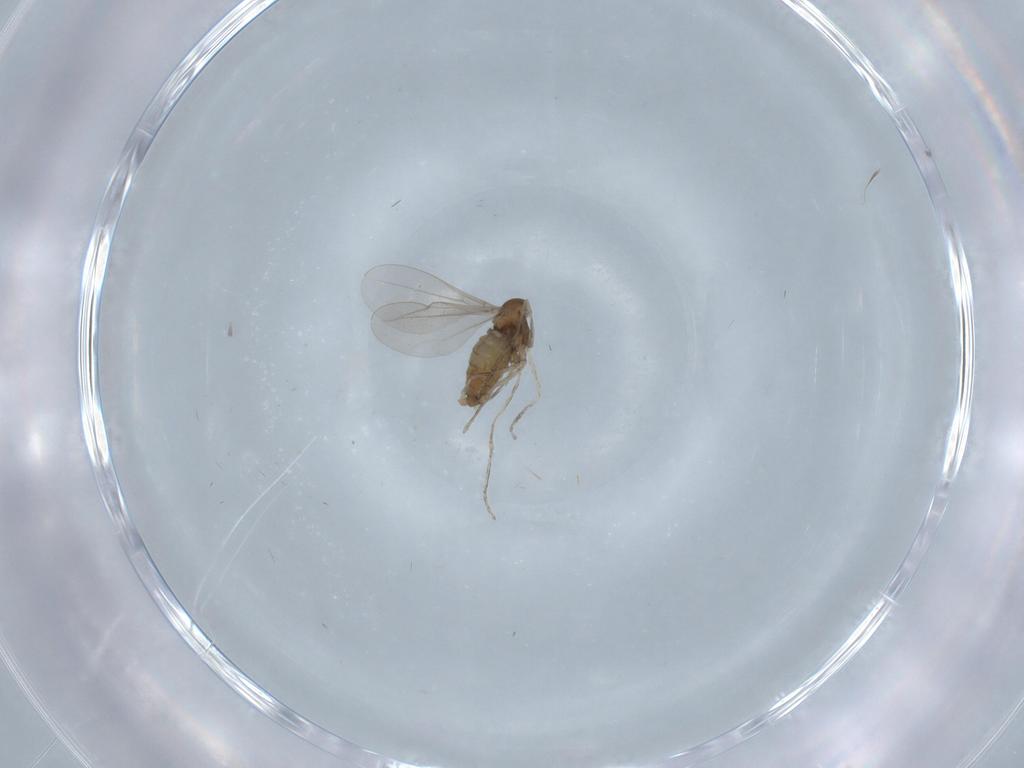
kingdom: Animalia
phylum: Arthropoda
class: Insecta
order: Diptera
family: Cecidomyiidae
